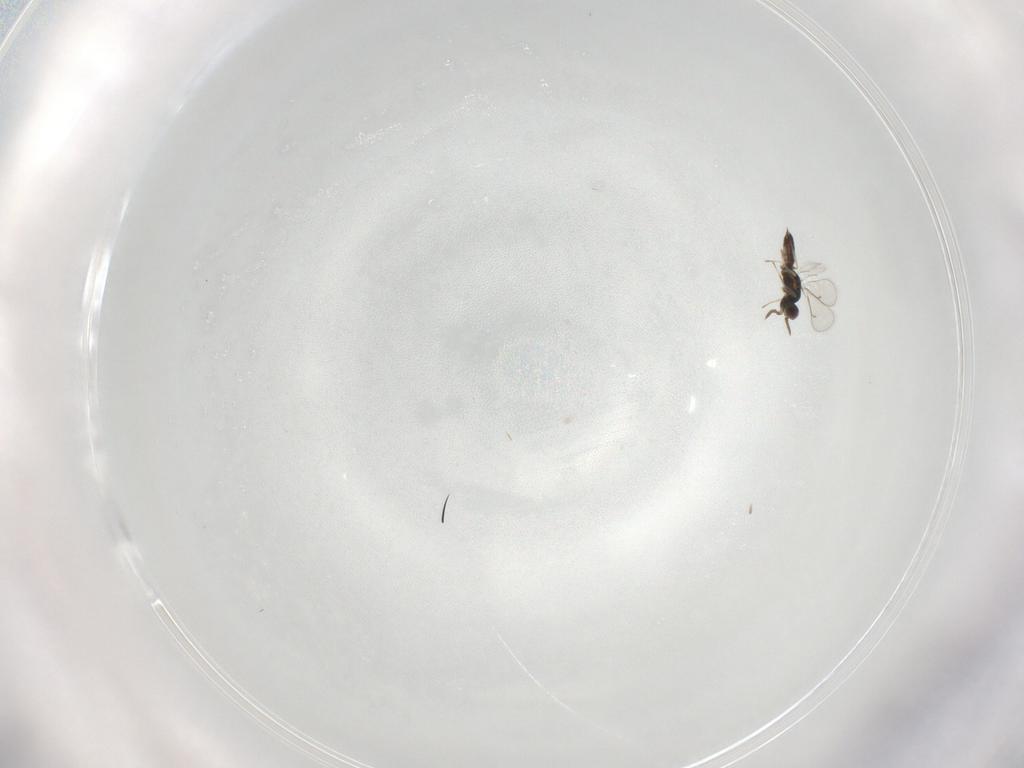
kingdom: Animalia
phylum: Arthropoda
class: Insecta
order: Hymenoptera
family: Eulophidae
